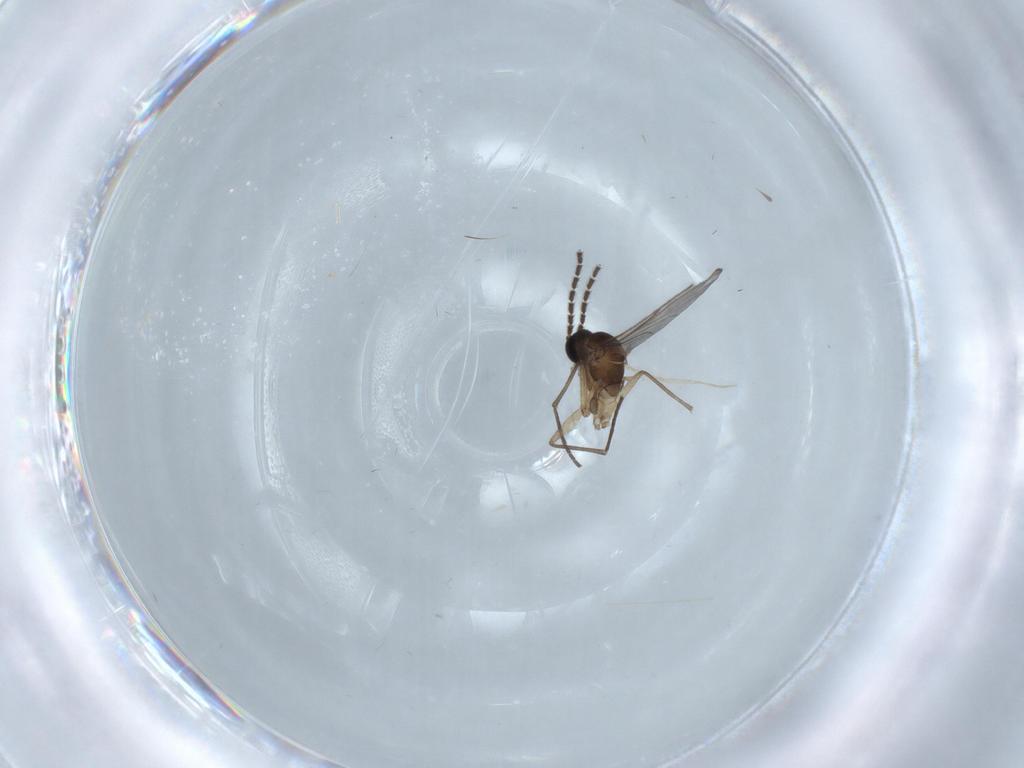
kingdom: Animalia
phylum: Arthropoda
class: Insecta
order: Diptera
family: Sciaridae
